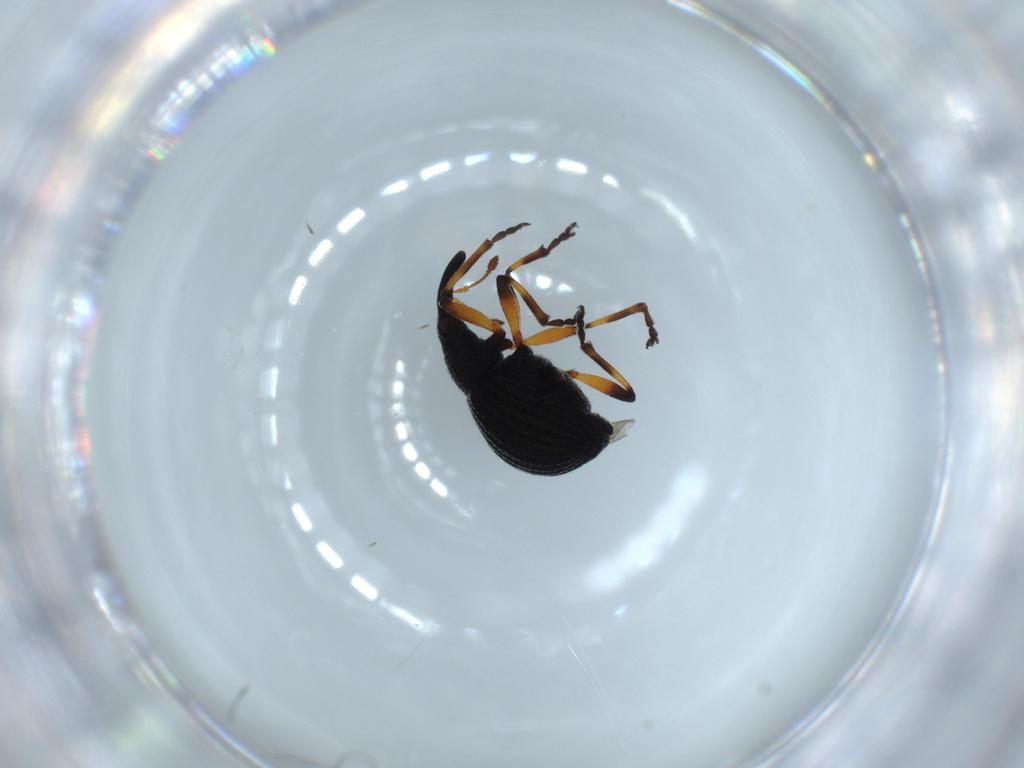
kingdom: Animalia
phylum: Arthropoda
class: Insecta
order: Coleoptera
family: Brentidae
